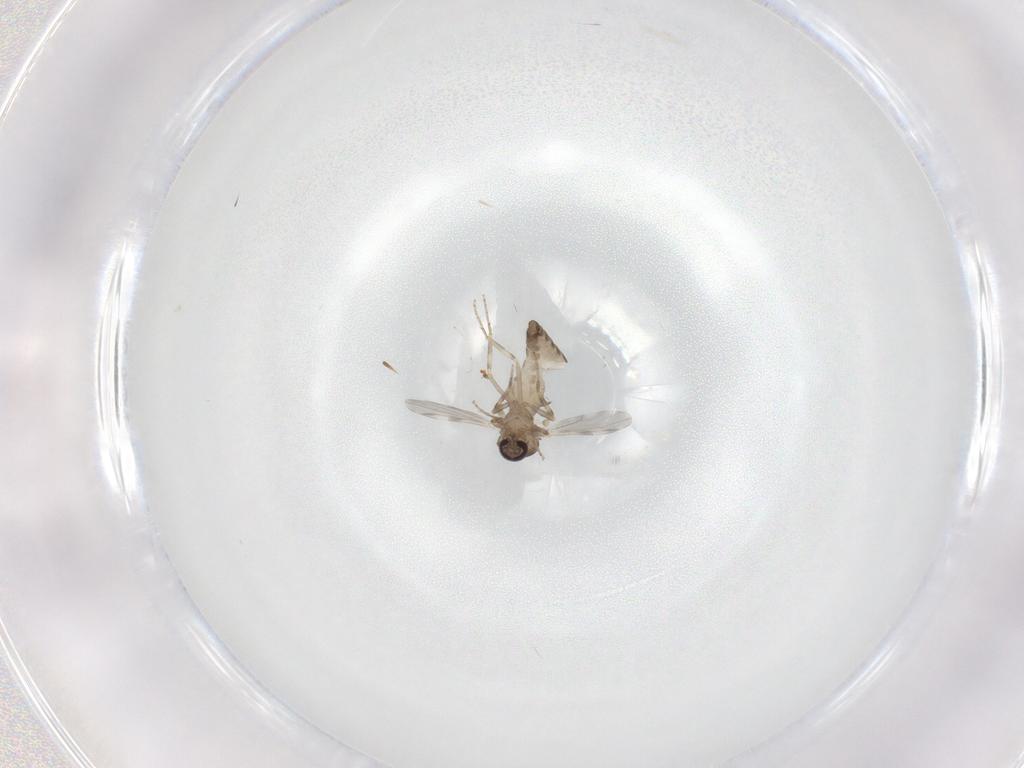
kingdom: Animalia
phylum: Arthropoda
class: Insecta
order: Diptera
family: Ceratopogonidae
